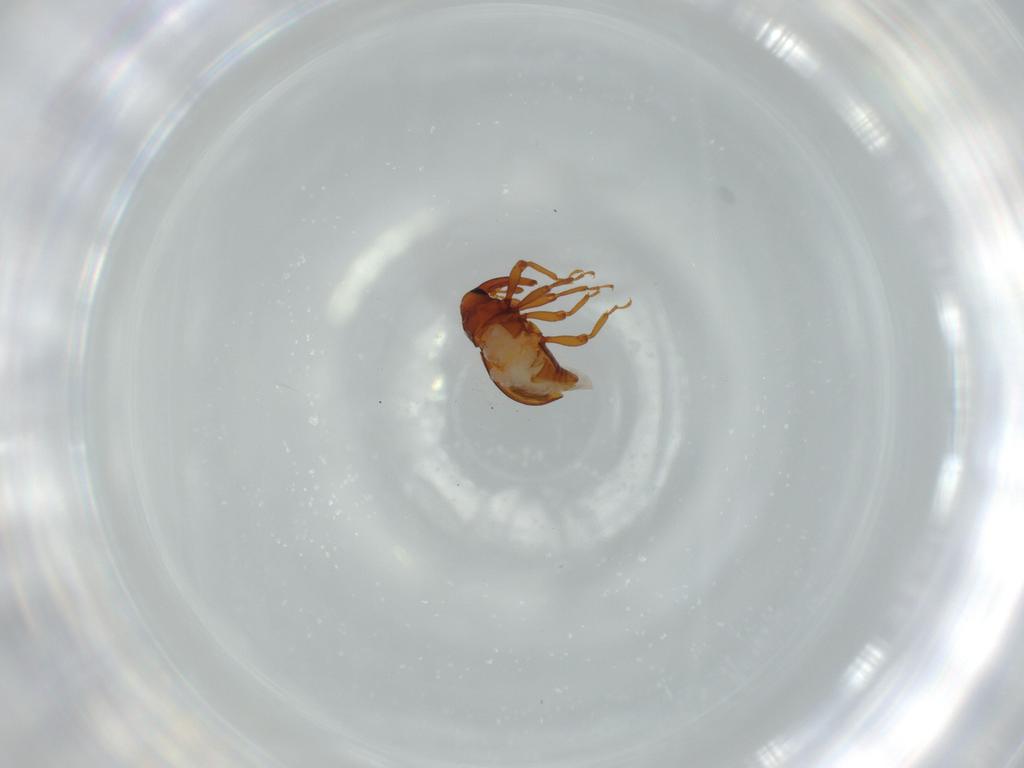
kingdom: Animalia
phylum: Arthropoda
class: Insecta
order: Coleoptera
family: Curculionidae
